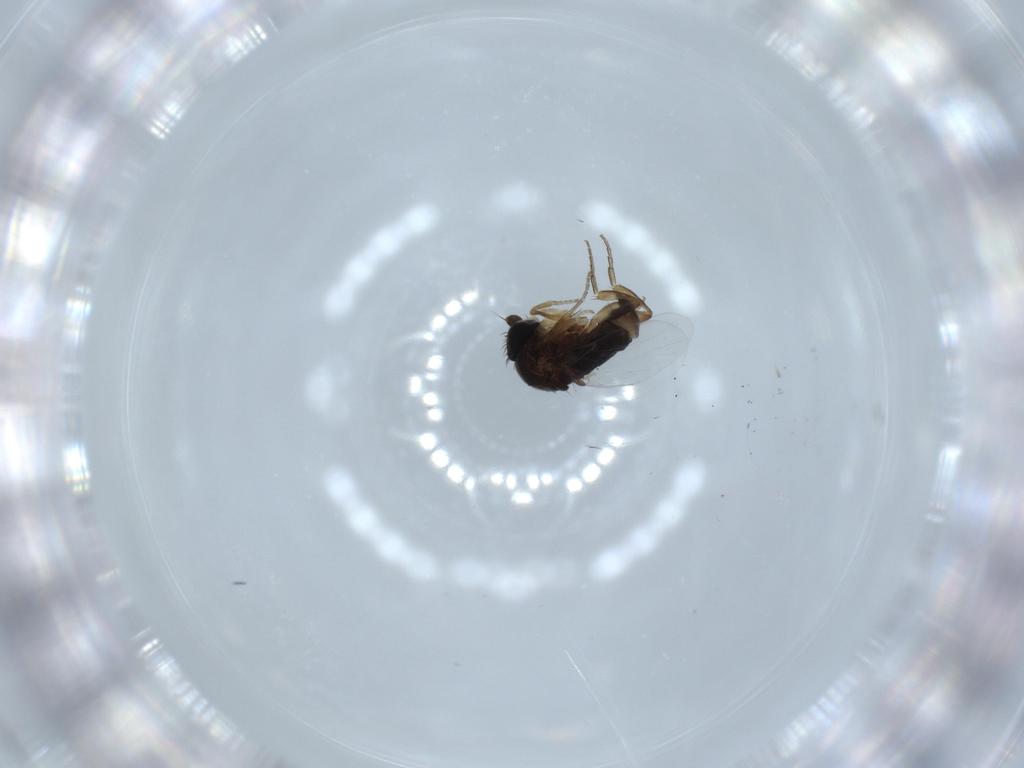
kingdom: Animalia
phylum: Arthropoda
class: Insecta
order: Diptera
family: Phoridae
